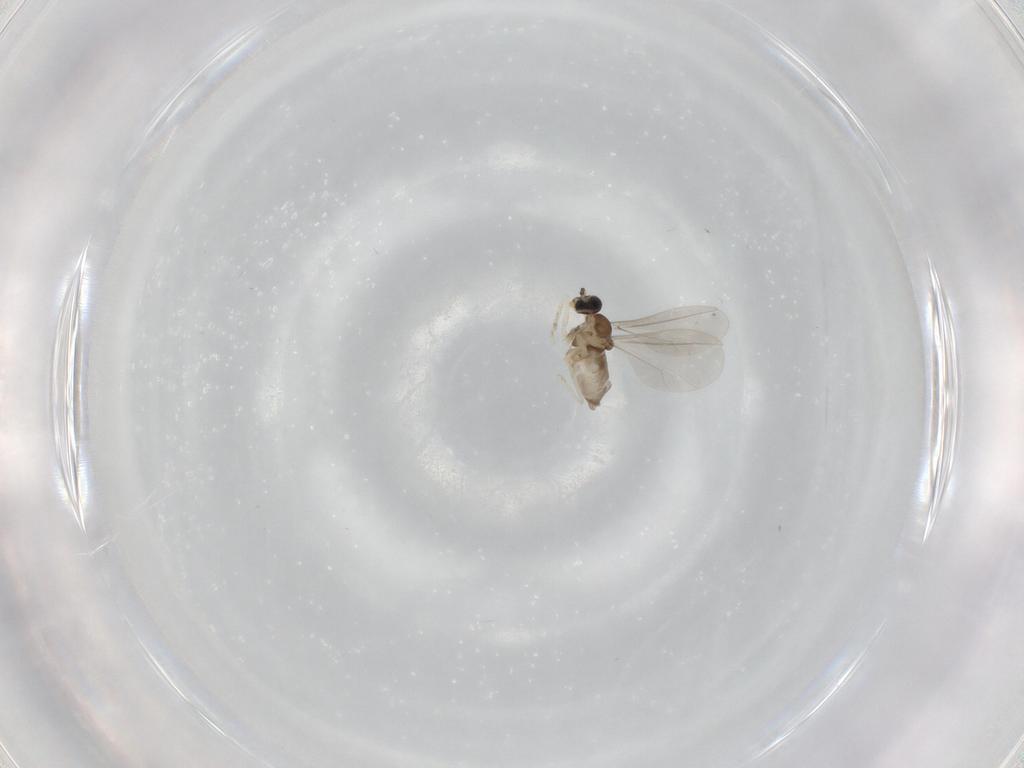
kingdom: Animalia
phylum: Arthropoda
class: Insecta
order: Diptera
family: Cecidomyiidae
